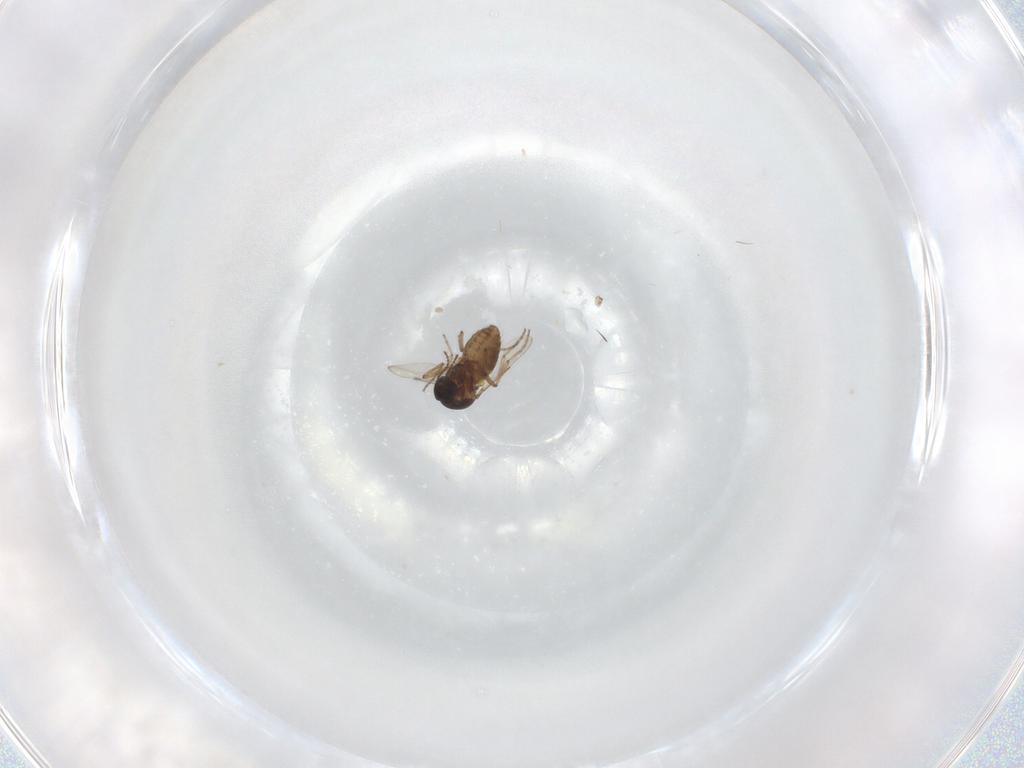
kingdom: Animalia
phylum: Arthropoda
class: Insecta
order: Diptera
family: Ceratopogonidae
